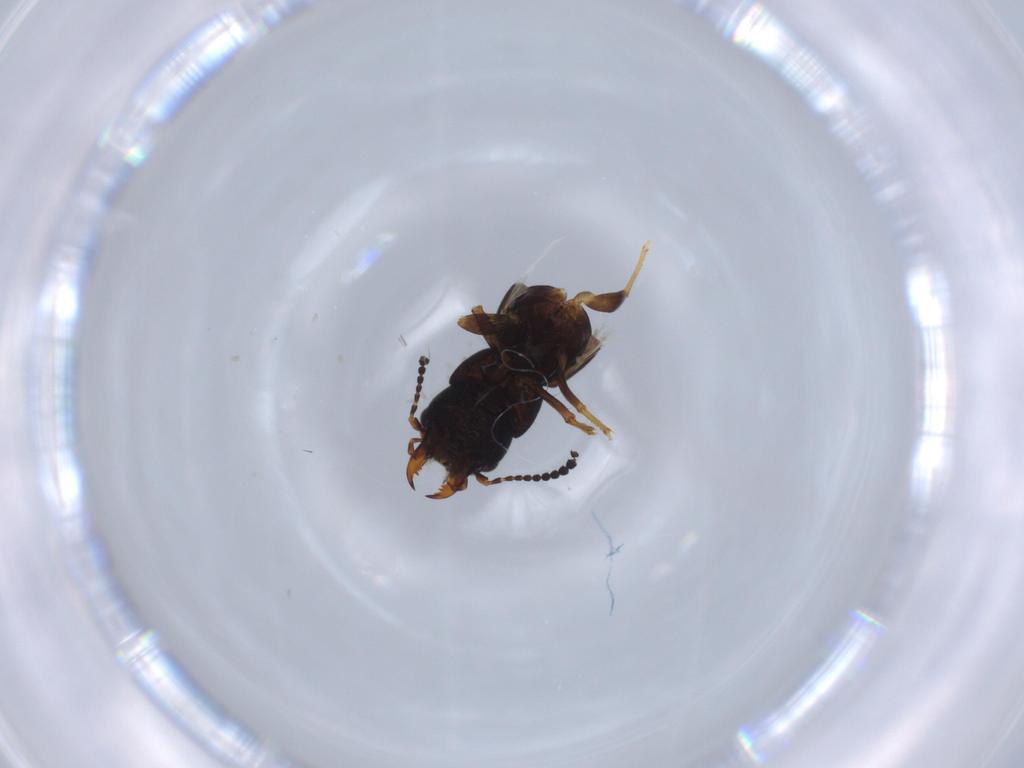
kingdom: Animalia
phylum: Arthropoda
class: Insecta
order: Coleoptera
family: Staphylinidae
